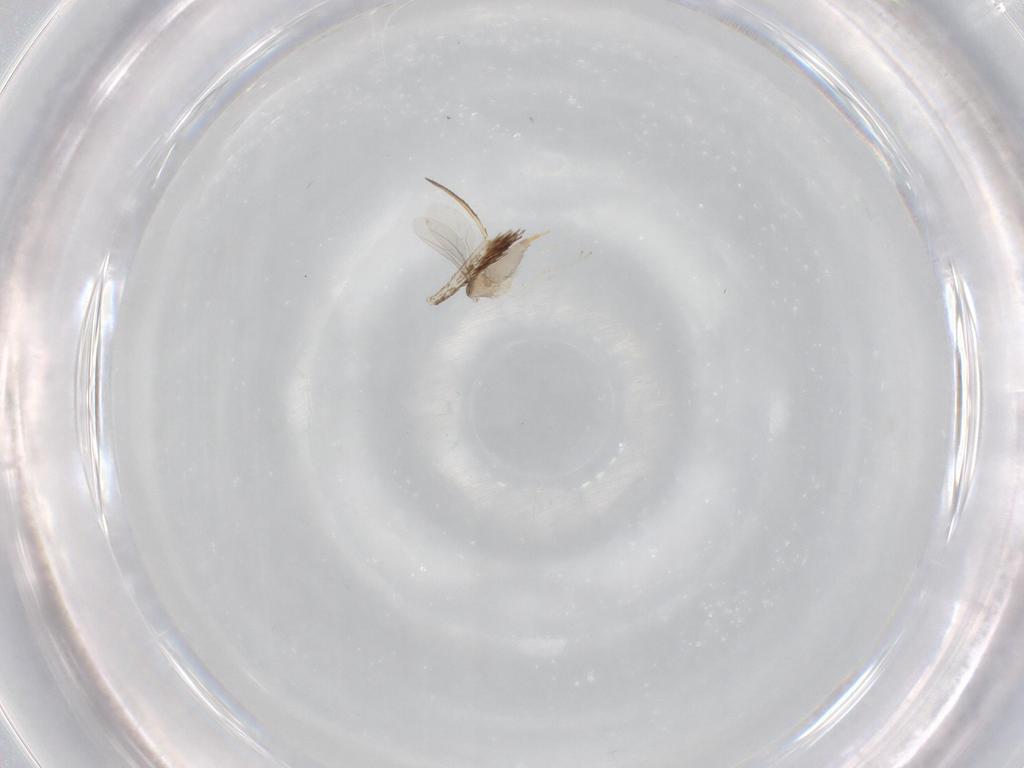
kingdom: Animalia
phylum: Arthropoda
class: Insecta
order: Diptera
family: Cecidomyiidae
